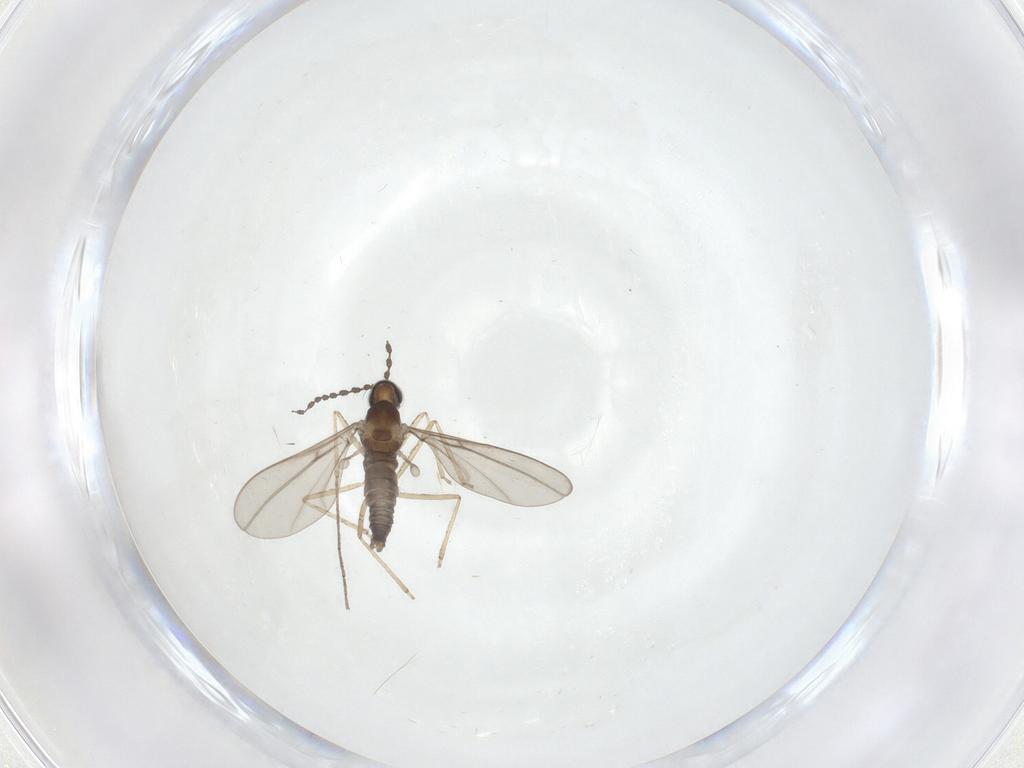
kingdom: Animalia
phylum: Arthropoda
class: Insecta
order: Diptera
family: Cecidomyiidae
